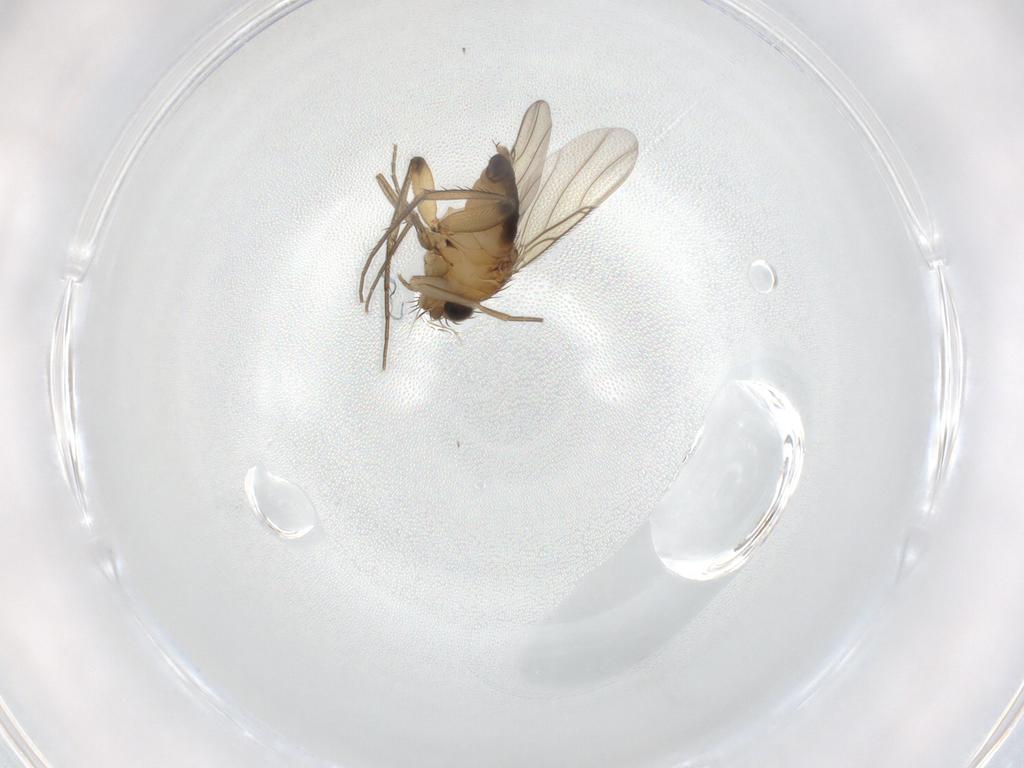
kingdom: Animalia
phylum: Arthropoda
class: Insecta
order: Diptera
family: Phoridae
